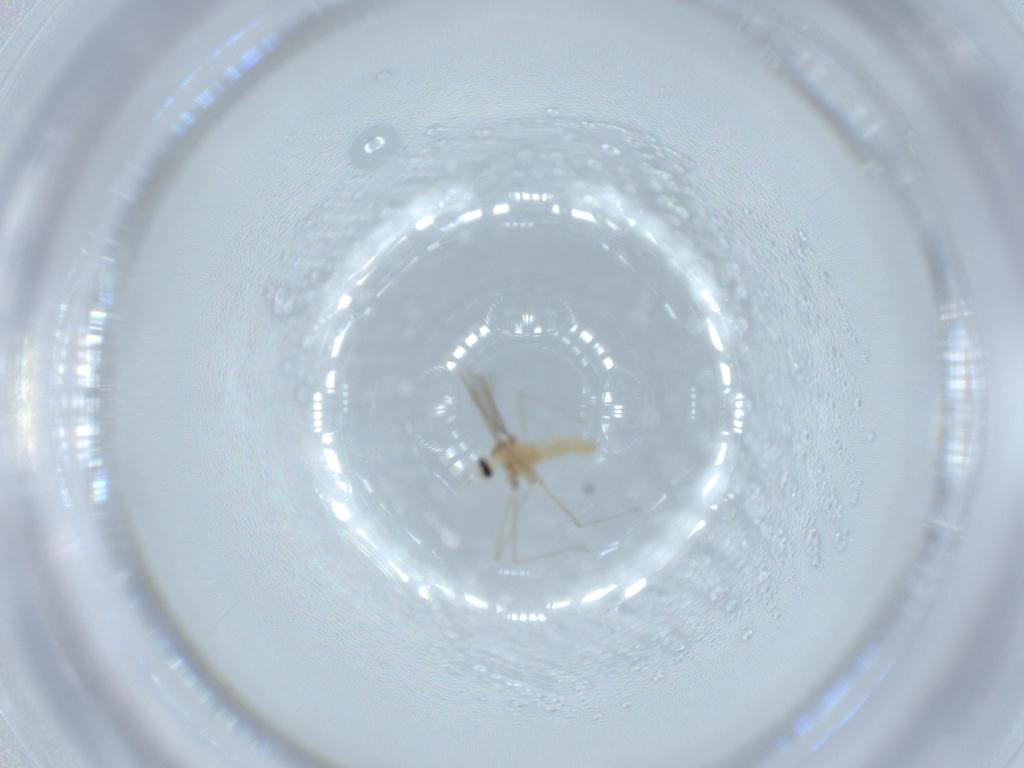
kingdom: Animalia
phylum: Arthropoda
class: Insecta
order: Diptera
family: Cecidomyiidae
